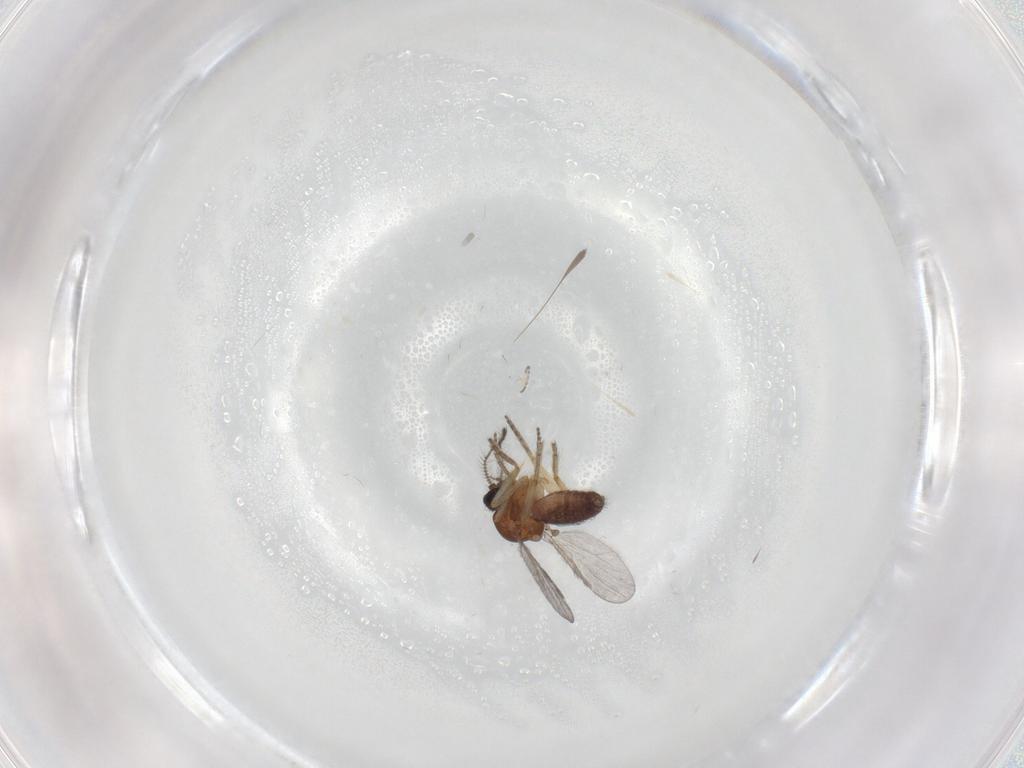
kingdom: Animalia
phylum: Arthropoda
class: Insecta
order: Diptera
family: Ceratopogonidae
